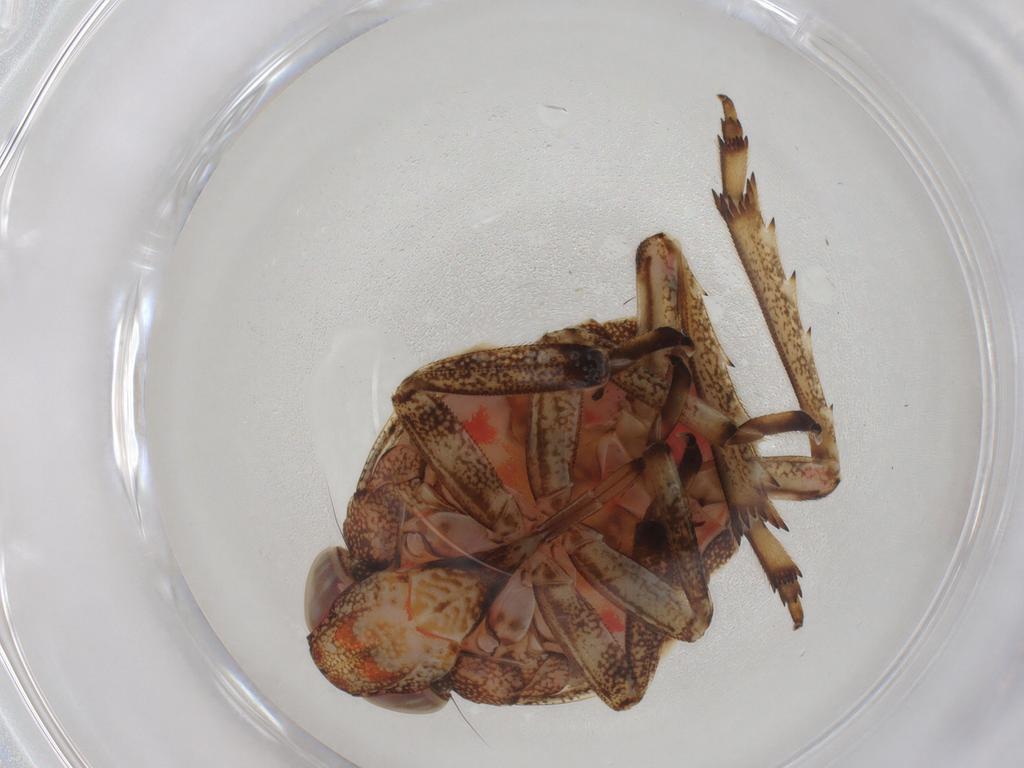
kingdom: Animalia
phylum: Arthropoda
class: Insecta
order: Hemiptera
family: Issidae
